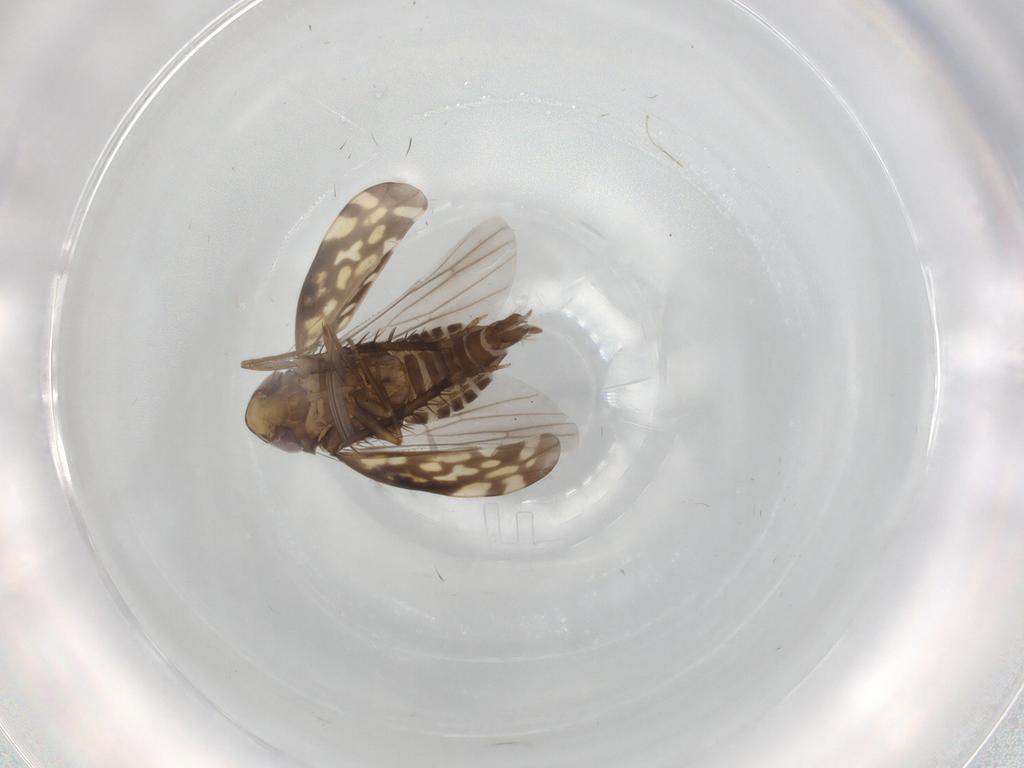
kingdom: Animalia
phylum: Arthropoda
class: Insecta
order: Hemiptera
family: Cicadellidae
